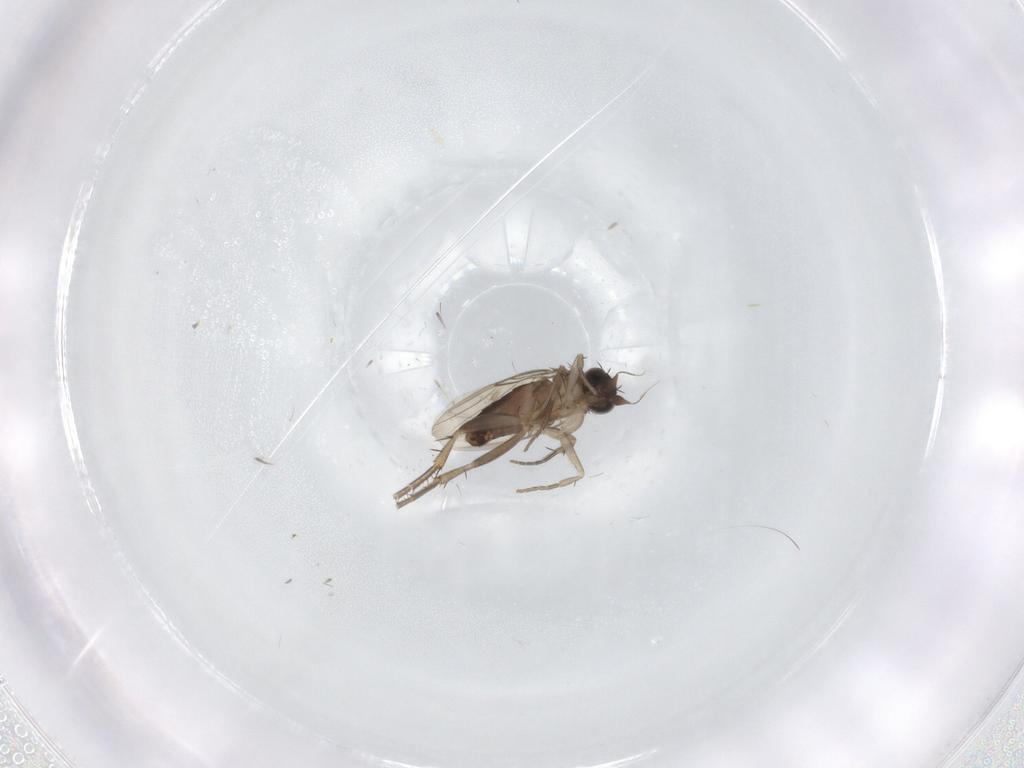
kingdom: Animalia
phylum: Arthropoda
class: Insecta
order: Diptera
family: Phoridae
